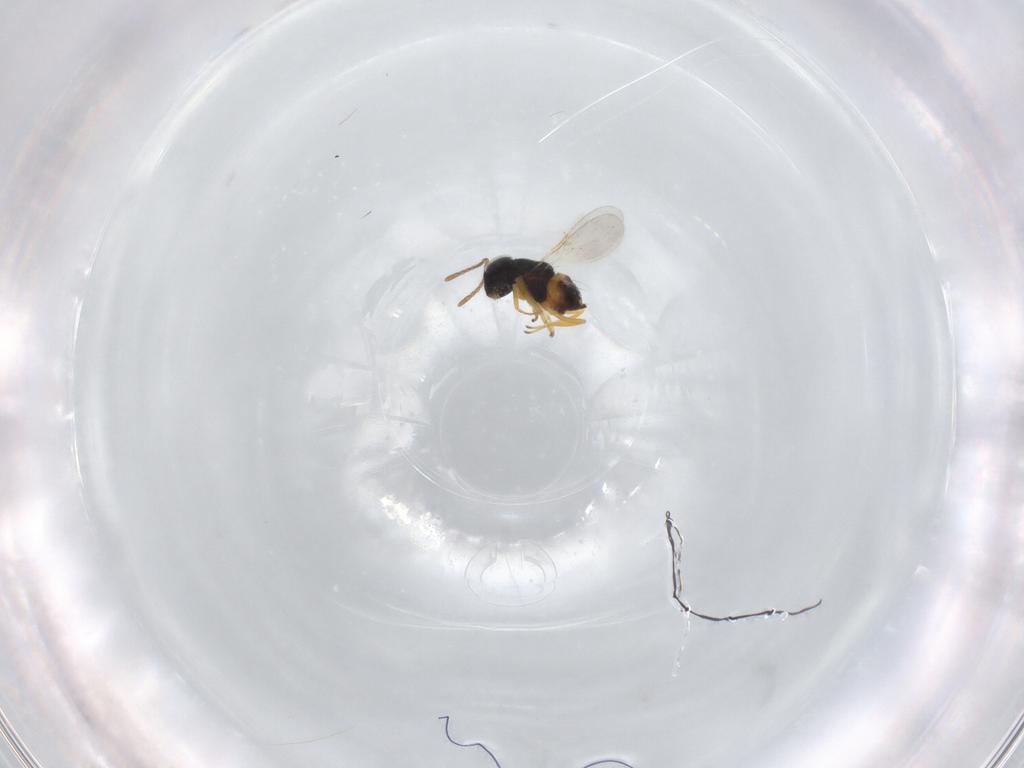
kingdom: Animalia
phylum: Arthropoda
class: Insecta
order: Hymenoptera
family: Encyrtidae
